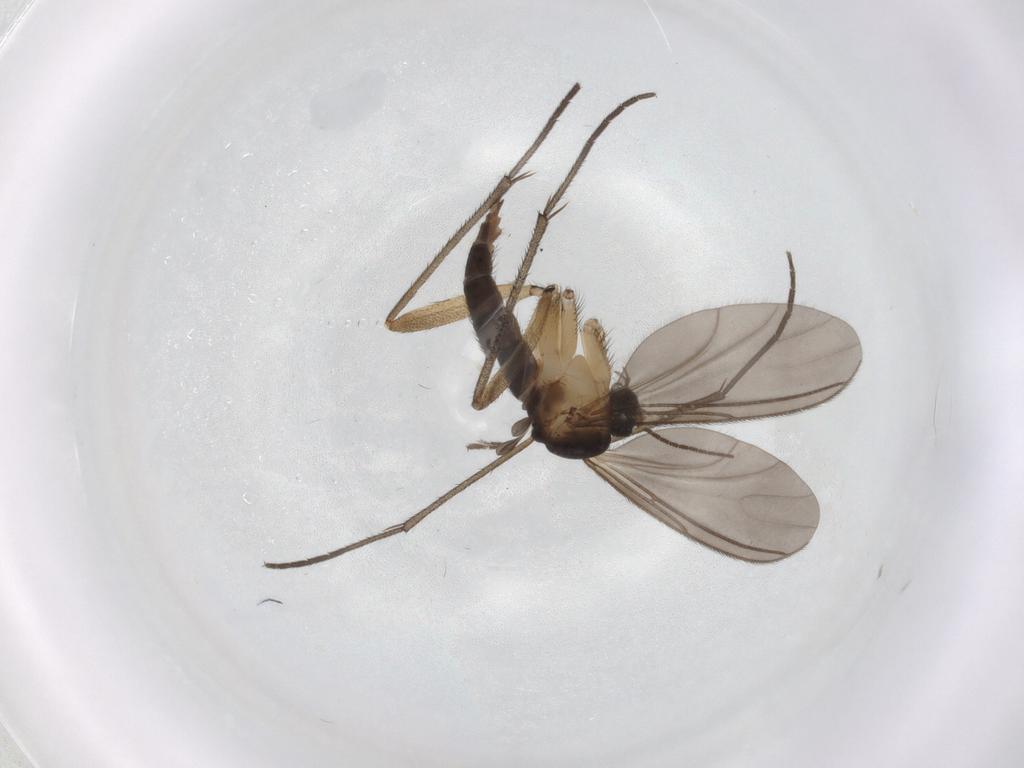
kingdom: Animalia
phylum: Arthropoda
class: Insecta
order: Diptera
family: Sciaridae
